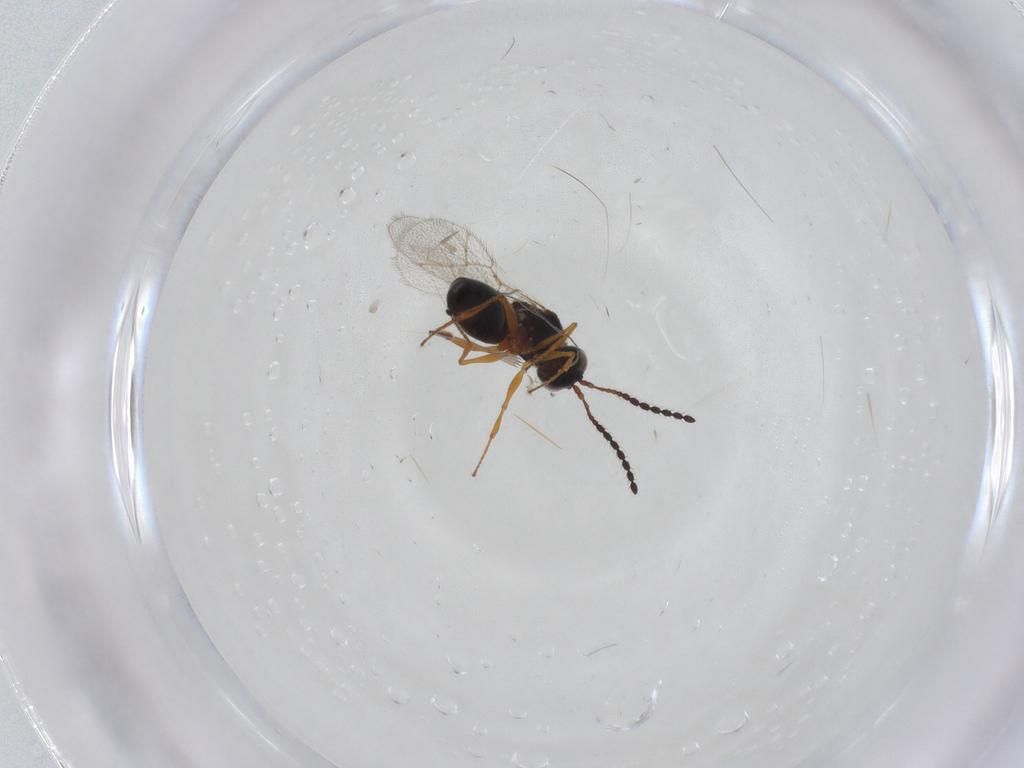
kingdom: Animalia
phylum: Arthropoda
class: Insecta
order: Hymenoptera
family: Figitidae
